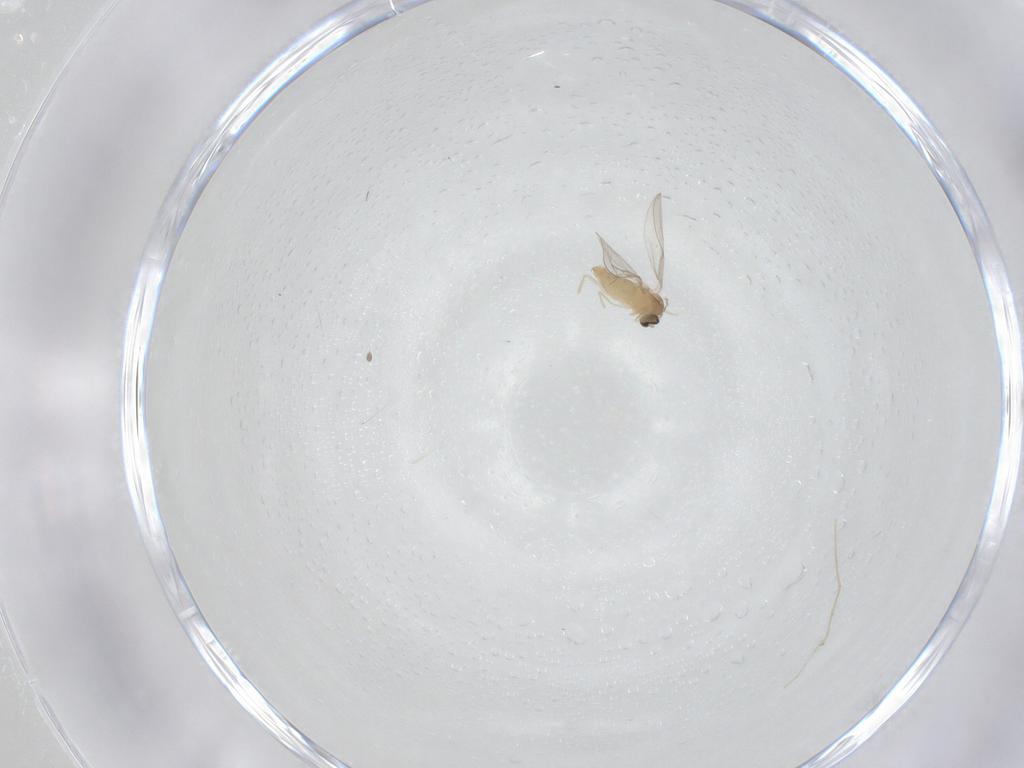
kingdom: Animalia
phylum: Arthropoda
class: Insecta
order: Diptera
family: Cecidomyiidae
